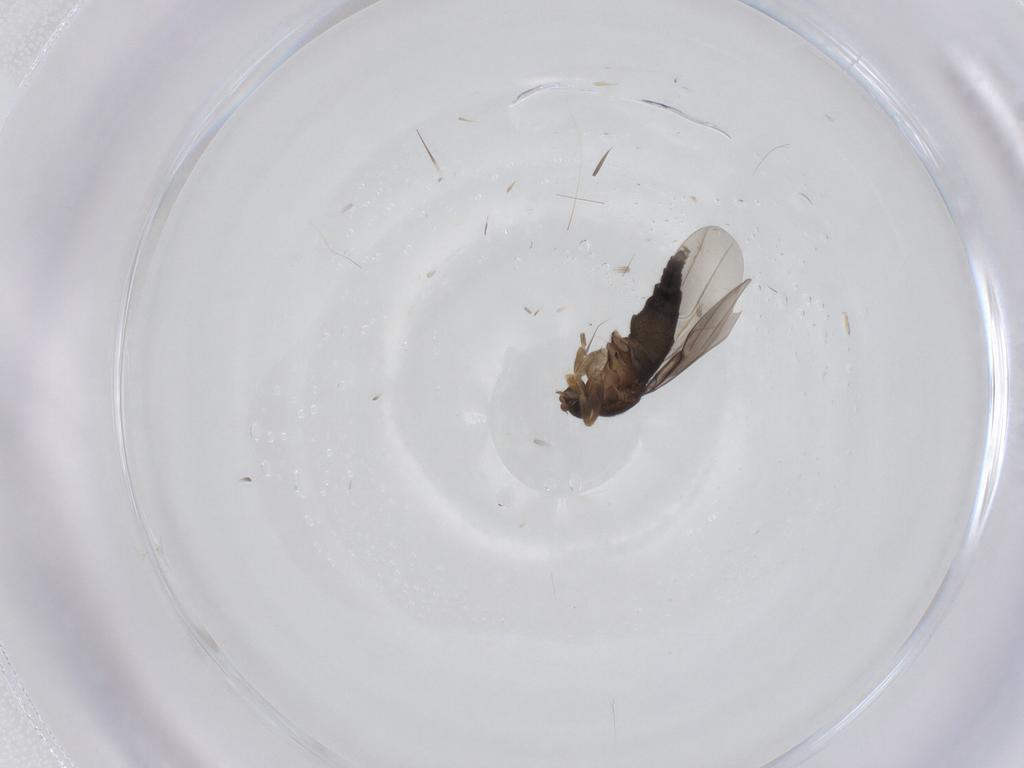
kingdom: Animalia
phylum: Arthropoda
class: Insecta
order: Diptera
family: Phoridae
